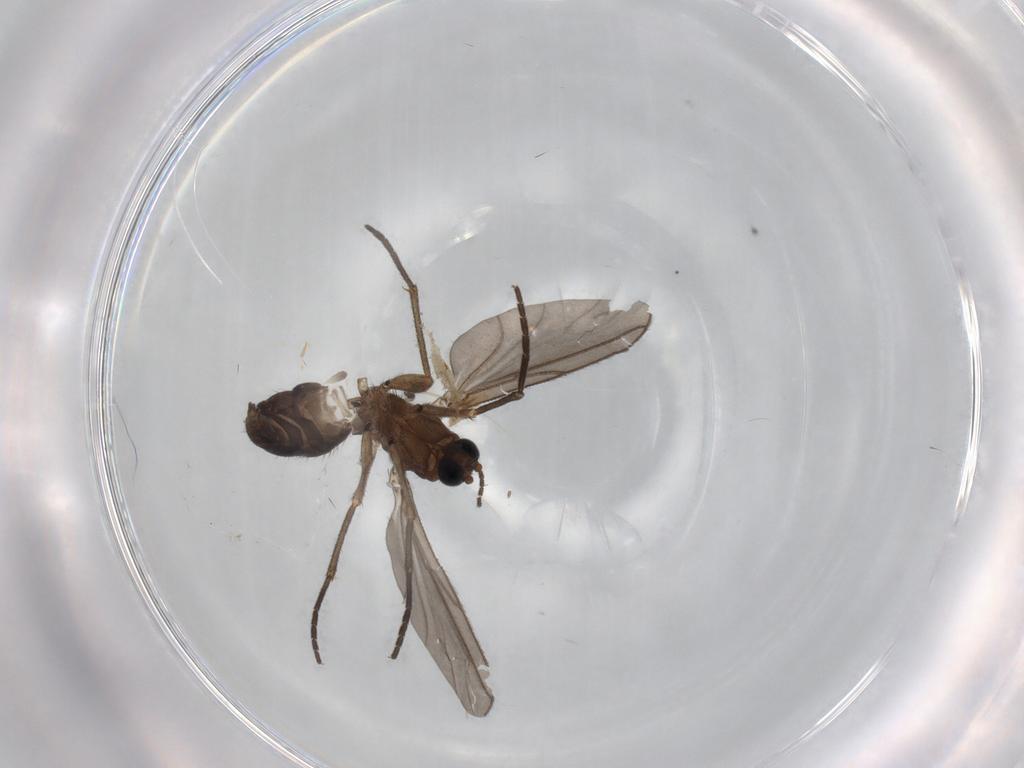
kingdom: Animalia
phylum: Arthropoda
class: Insecta
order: Diptera
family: Sciaridae
